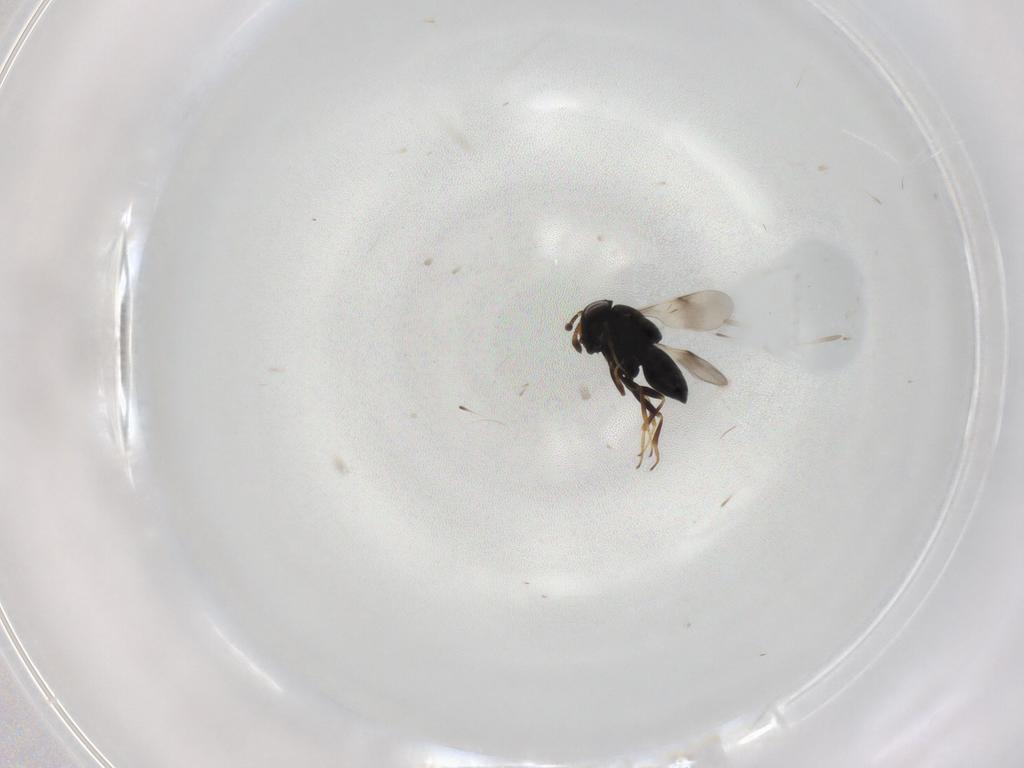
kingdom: Animalia
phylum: Arthropoda
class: Insecta
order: Hymenoptera
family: Scelionidae
